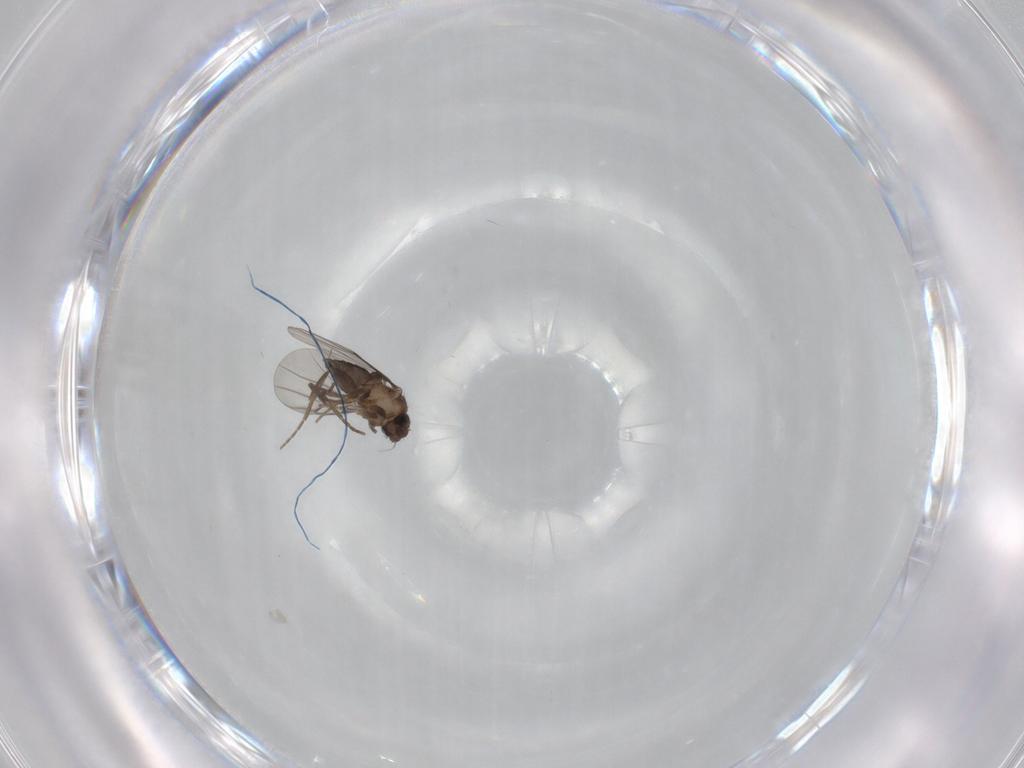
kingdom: Animalia
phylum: Arthropoda
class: Insecta
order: Diptera
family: Phoridae
